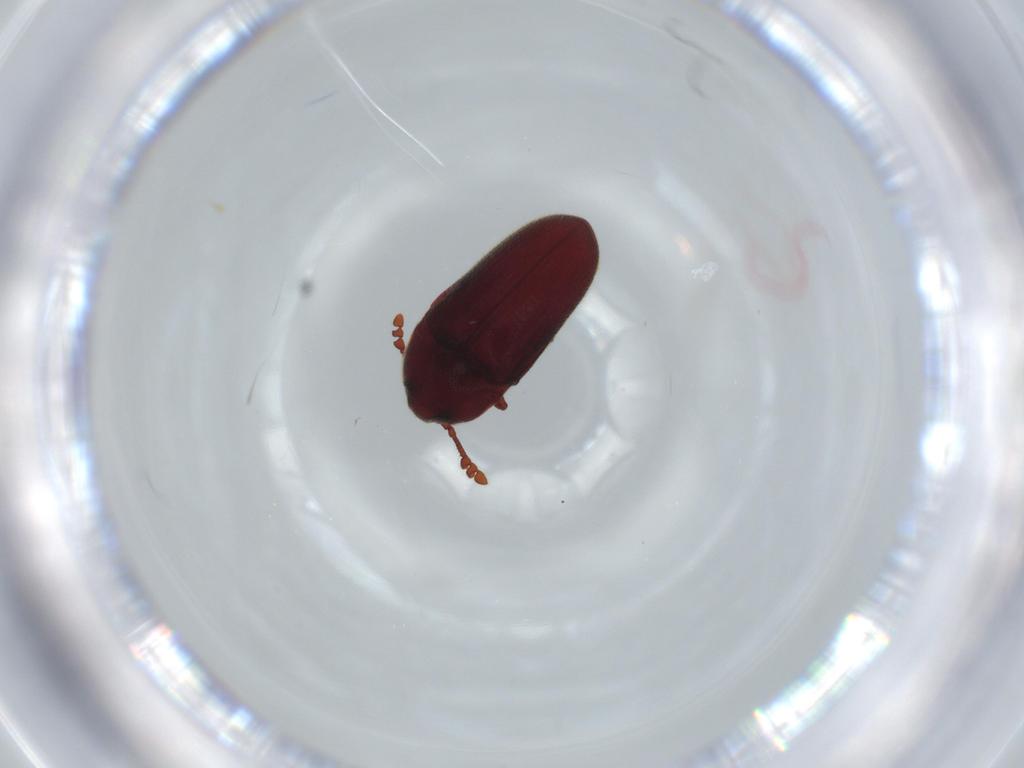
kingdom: Animalia
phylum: Arthropoda
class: Insecta
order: Coleoptera
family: Throscidae
